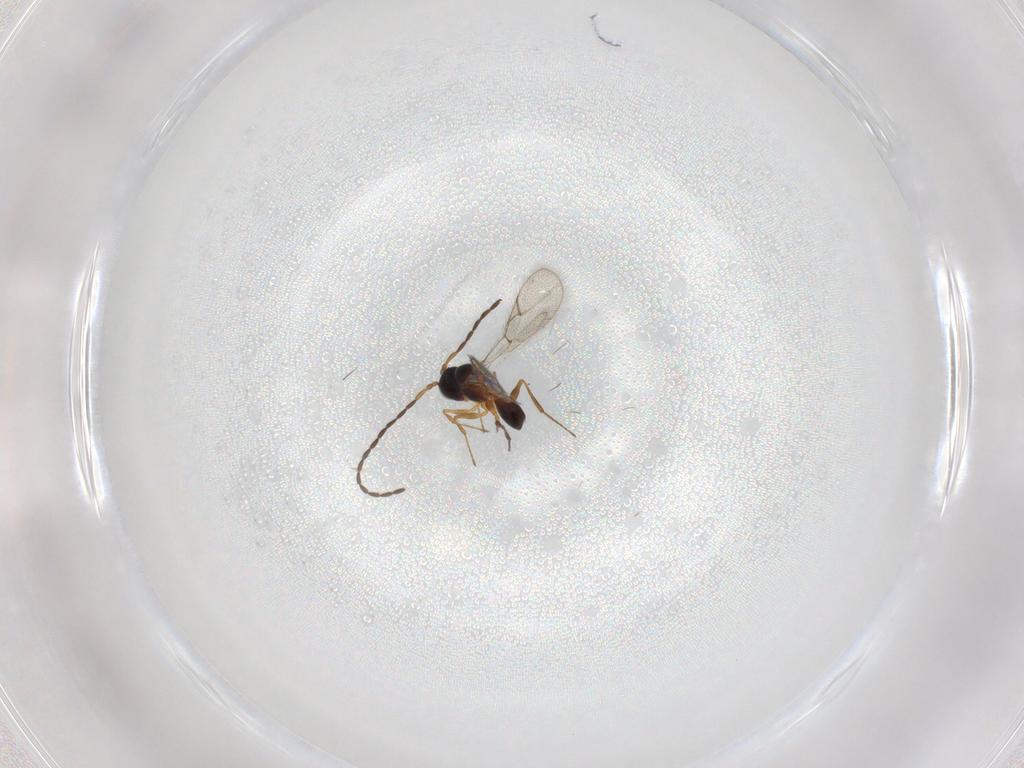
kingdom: Animalia
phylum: Arthropoda
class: Insecta
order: Hymenoptera
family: Figitidae
